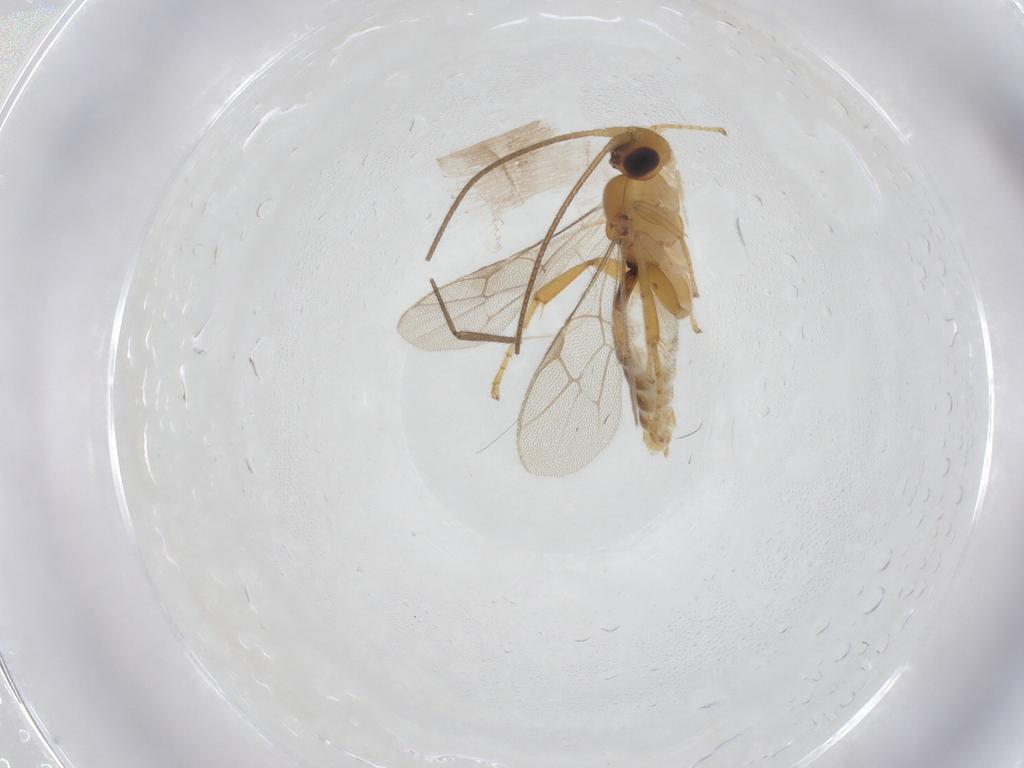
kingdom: Animalia
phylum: Arthropoda
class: Insecta
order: Hymenoptera
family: Ichneumonidae
